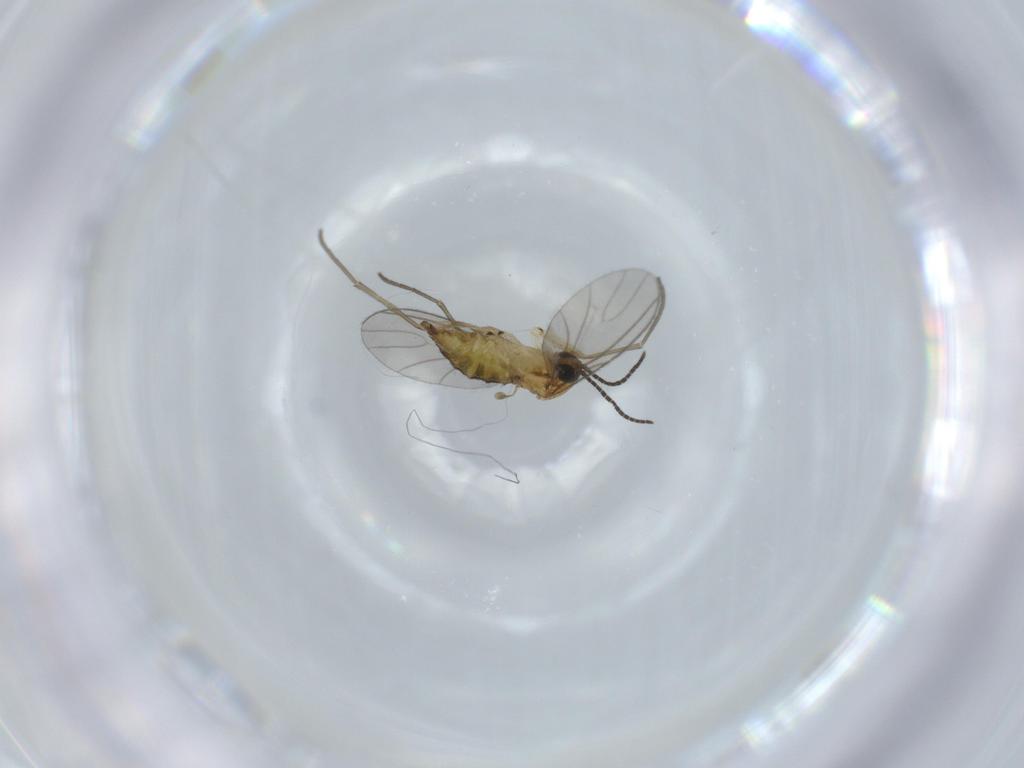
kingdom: Animalia
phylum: Arthropoda
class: Insecta
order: Diptera
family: Sciaridae
